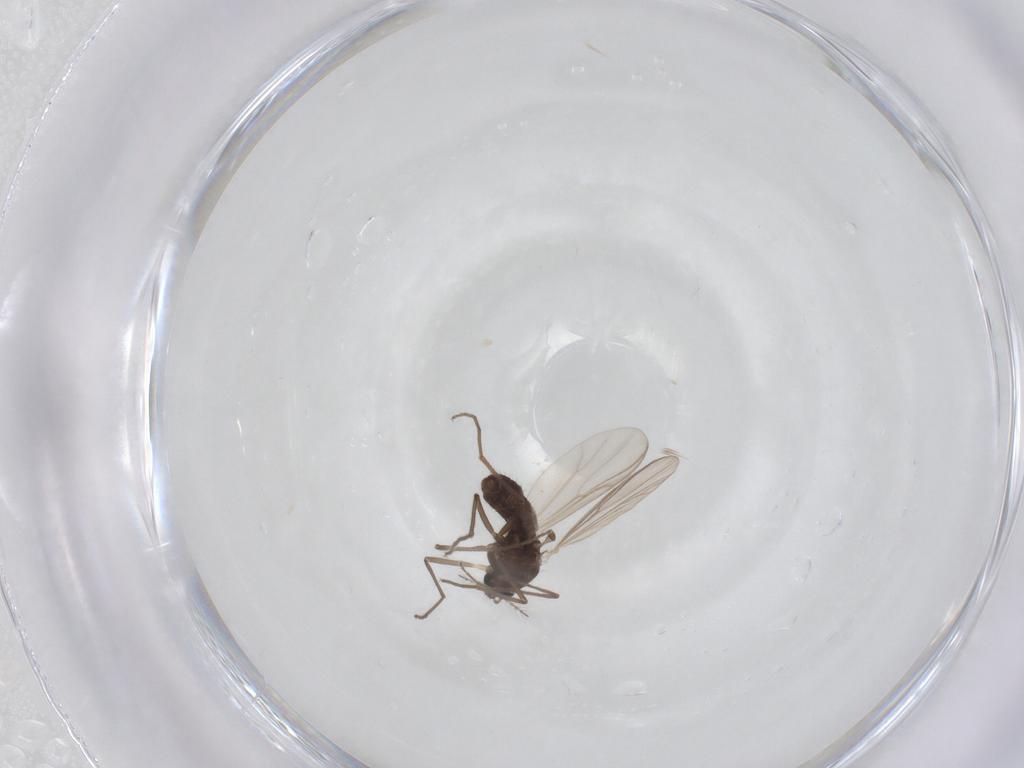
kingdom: Animalia
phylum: Arthropoda
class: Insecta
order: Diptera
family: Chironomidae
